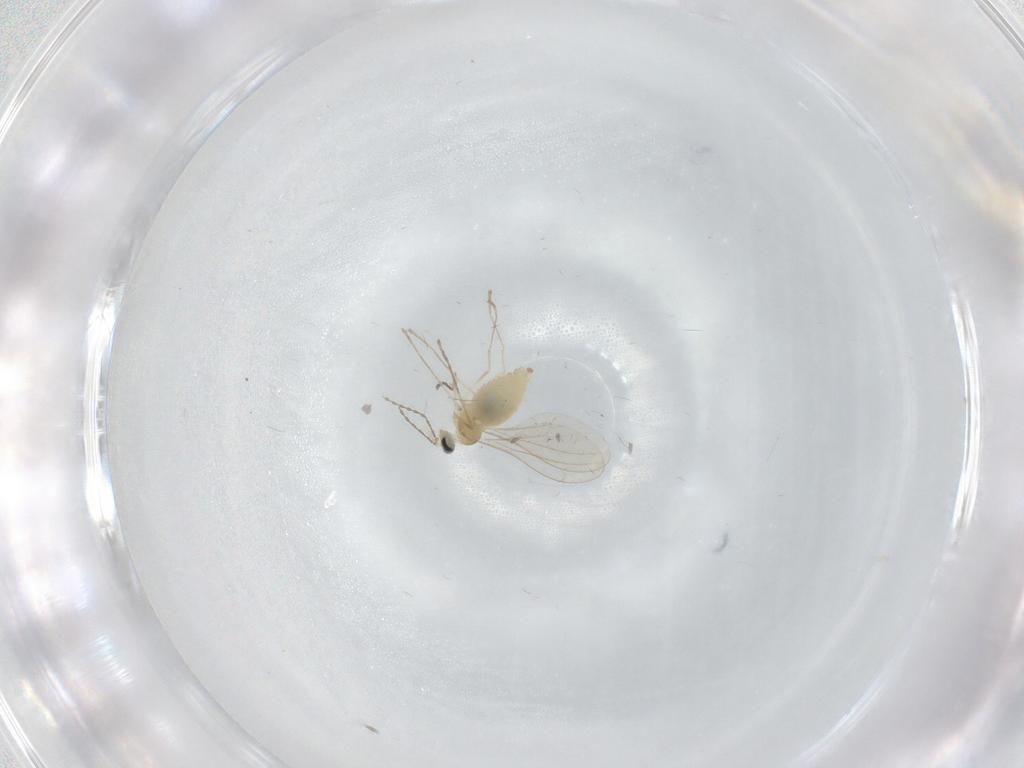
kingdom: Animalia
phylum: Arthropoda
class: Insecta
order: Diptera
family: Cecidomyiidae
